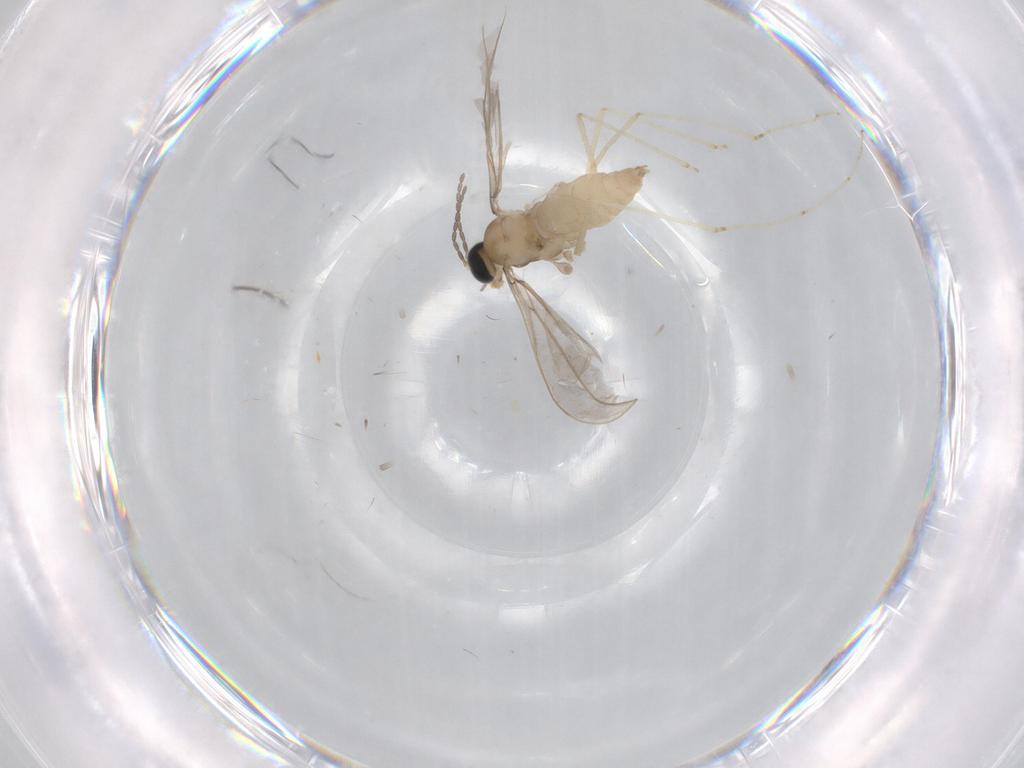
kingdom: Animalia
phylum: Arthropoda
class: Insecta
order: Diptera
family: Cecidomyiidae
